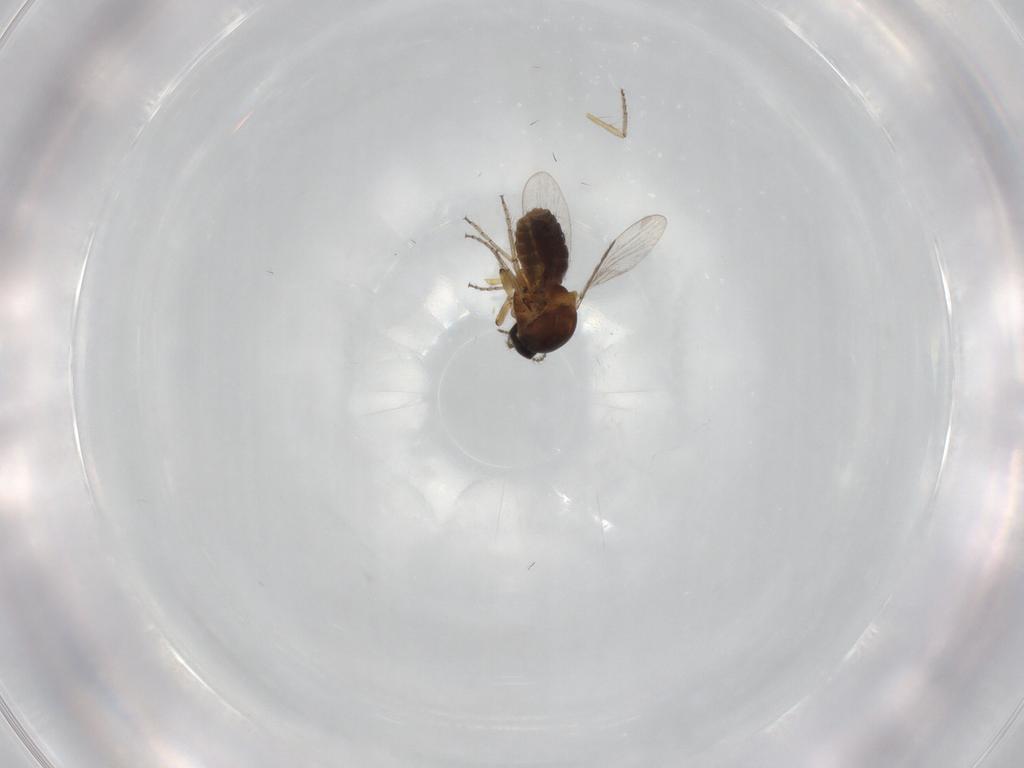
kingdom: Animalia
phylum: Arthropoda
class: Insecta
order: Diptera
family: Ceratopogonidae
